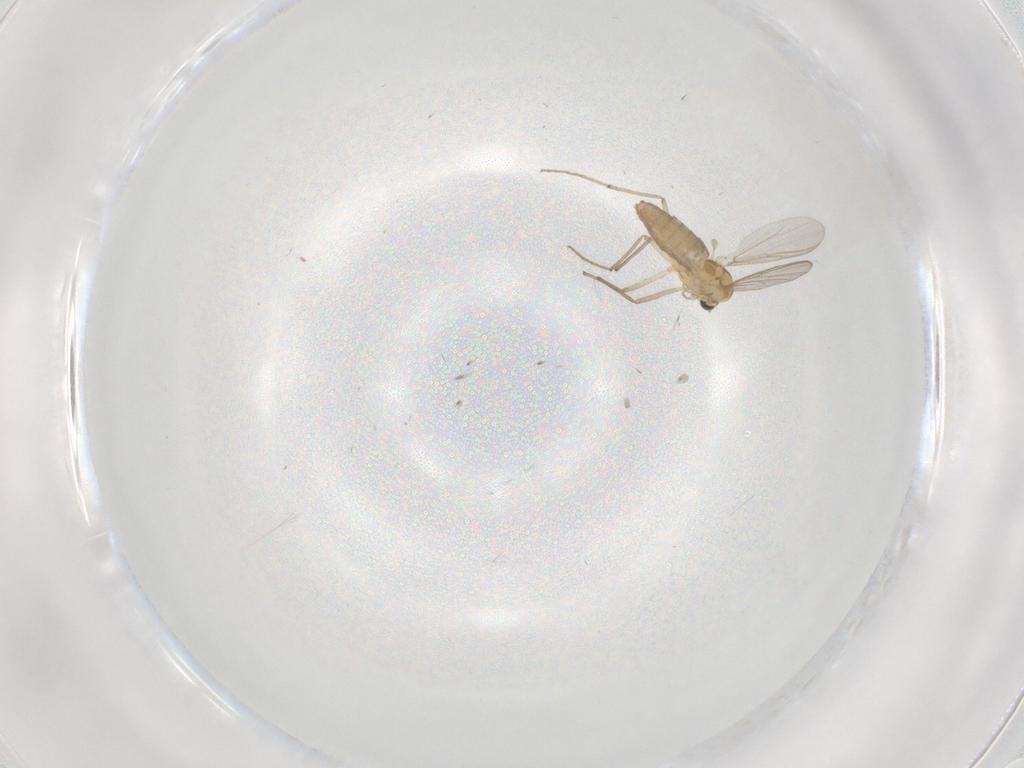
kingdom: Animalia
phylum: Arthropoda
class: Insecta
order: Diptera
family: Chironomidae
